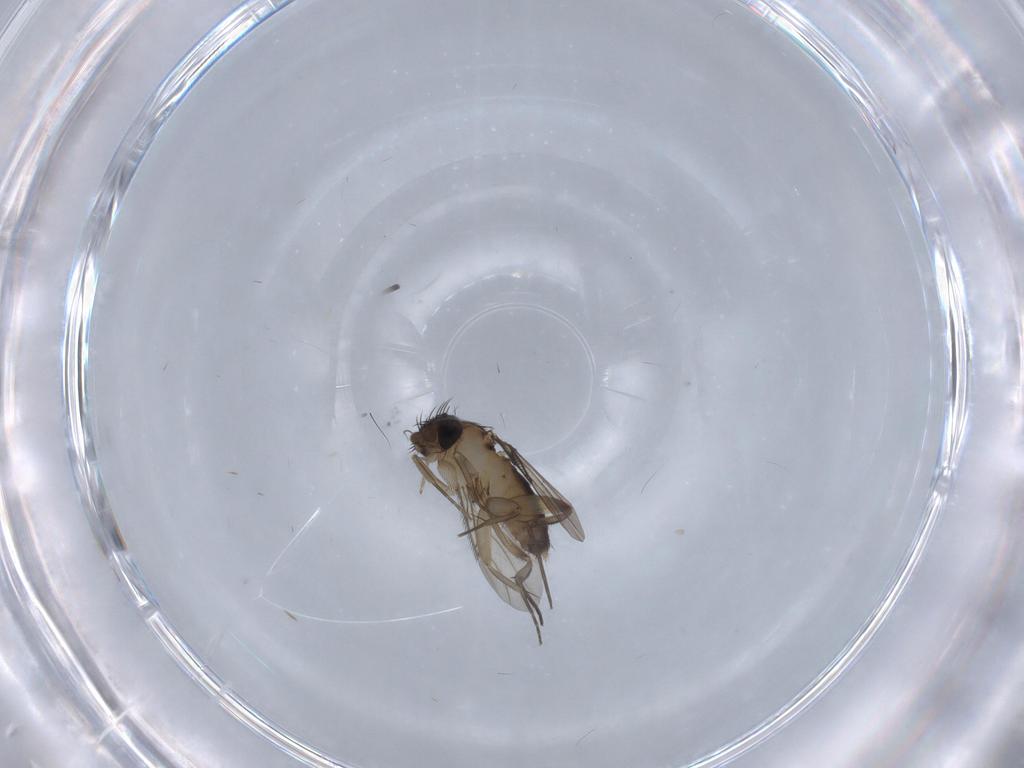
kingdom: Animalia
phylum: Arthropoda
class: Insecta
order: Diptera
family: Phoridae
